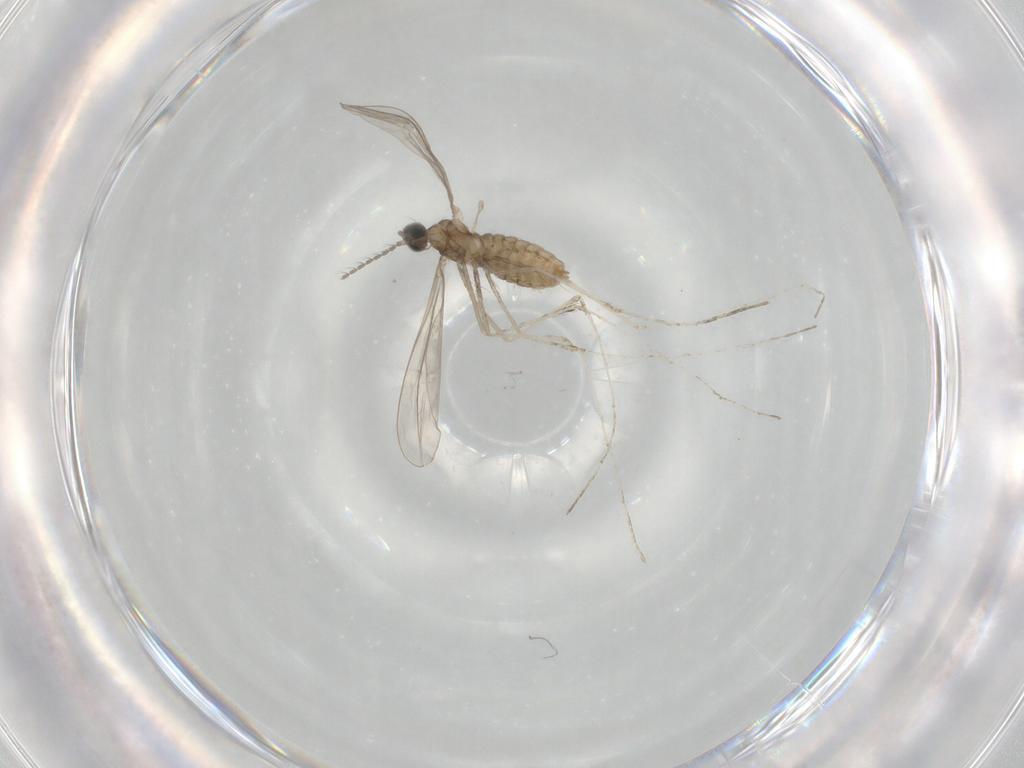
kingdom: Animalia
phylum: Arthropoda
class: Insecta
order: Diptera
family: Cecidomyiidae
